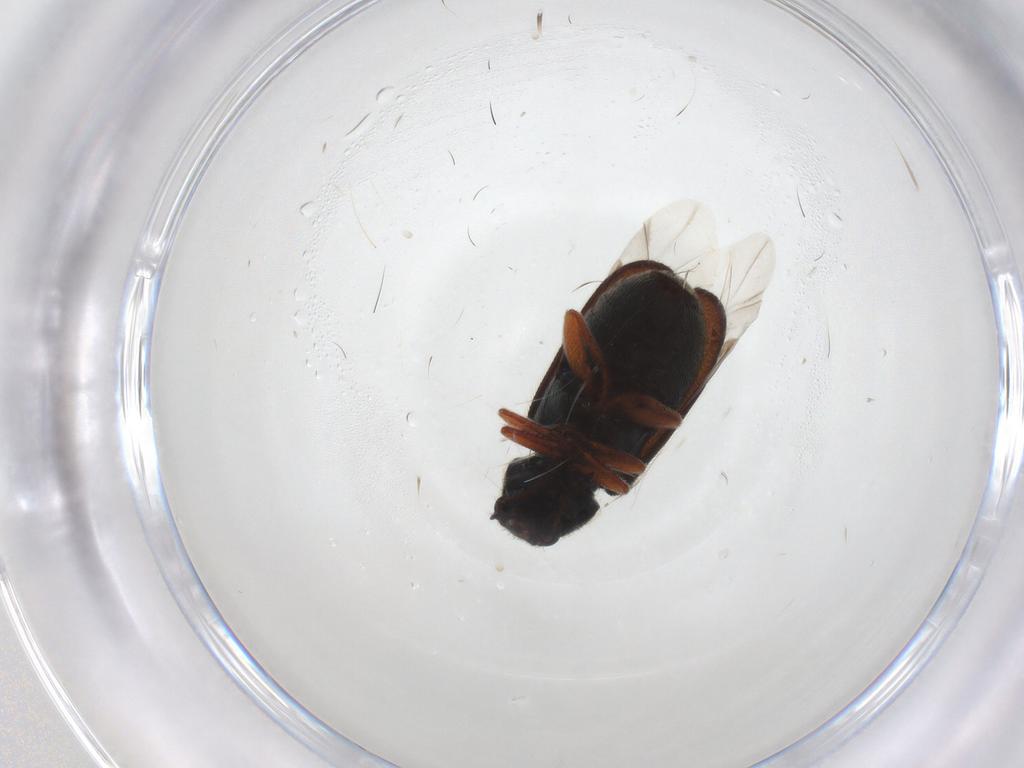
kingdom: Animalia
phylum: Arthropoda
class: Insecta
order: Coleoptera
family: Melyridae
